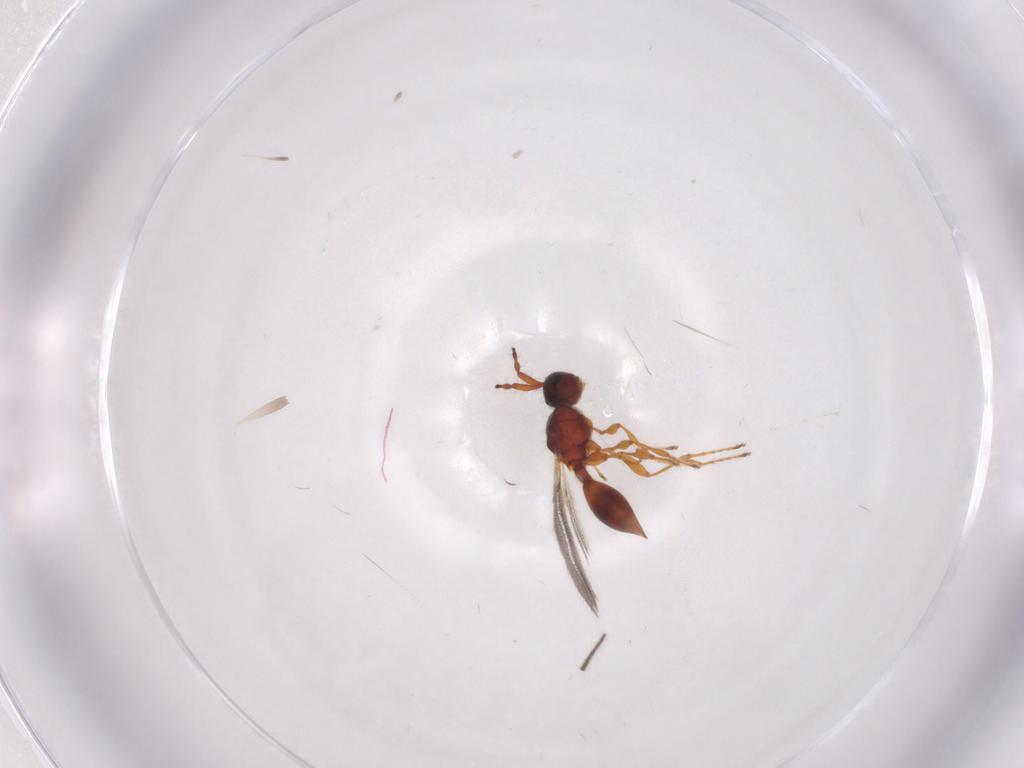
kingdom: Animalia
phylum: Arthropoda
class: Insecta
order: Hymenoptera
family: Diapriidae
